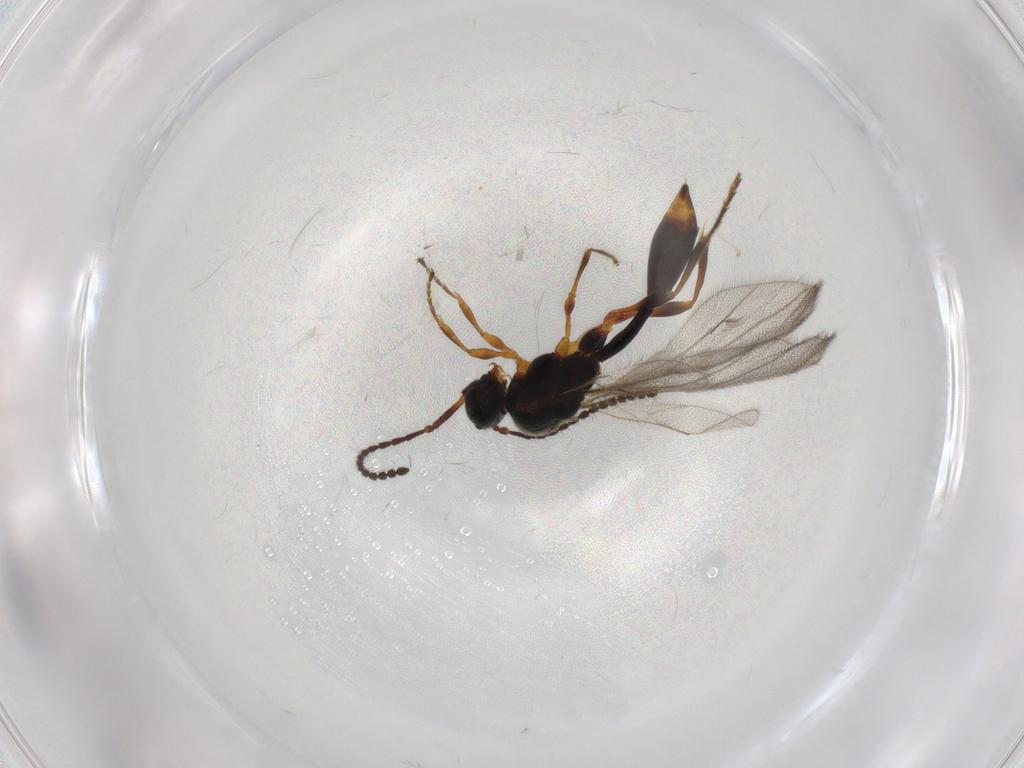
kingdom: Animalia
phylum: Arthropoda
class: Insecta
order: Hymenoptera
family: Diapriidae
